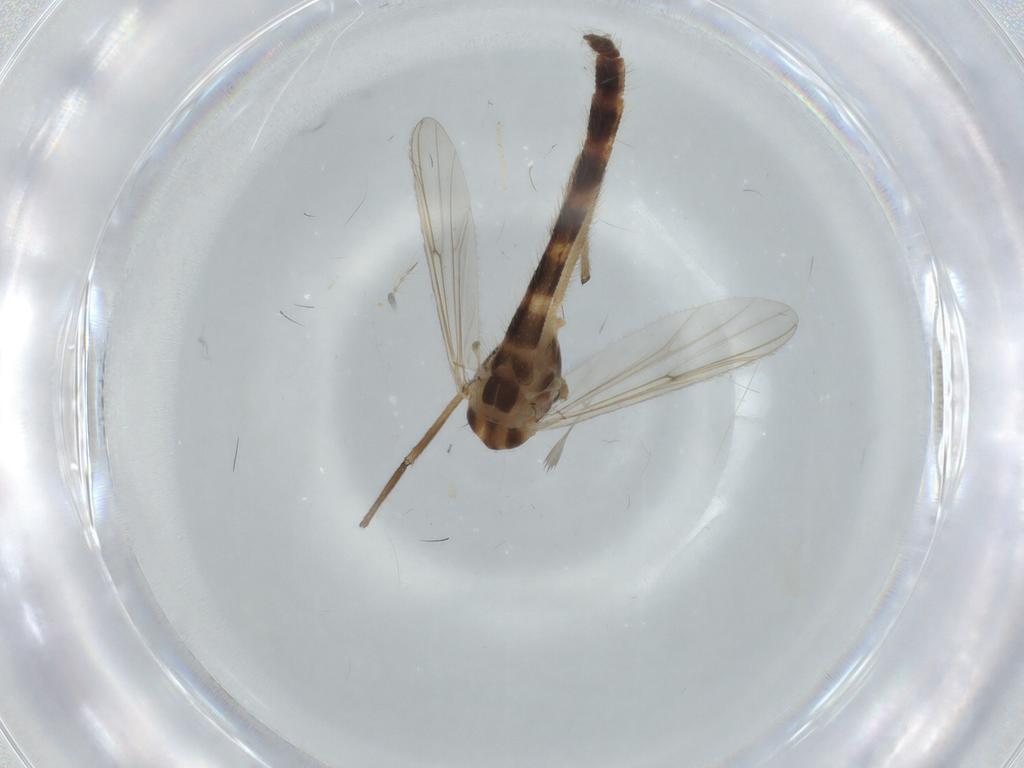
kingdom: Animalia
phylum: Arthropoda
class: Insecta
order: Diptera
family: Chironomidae
